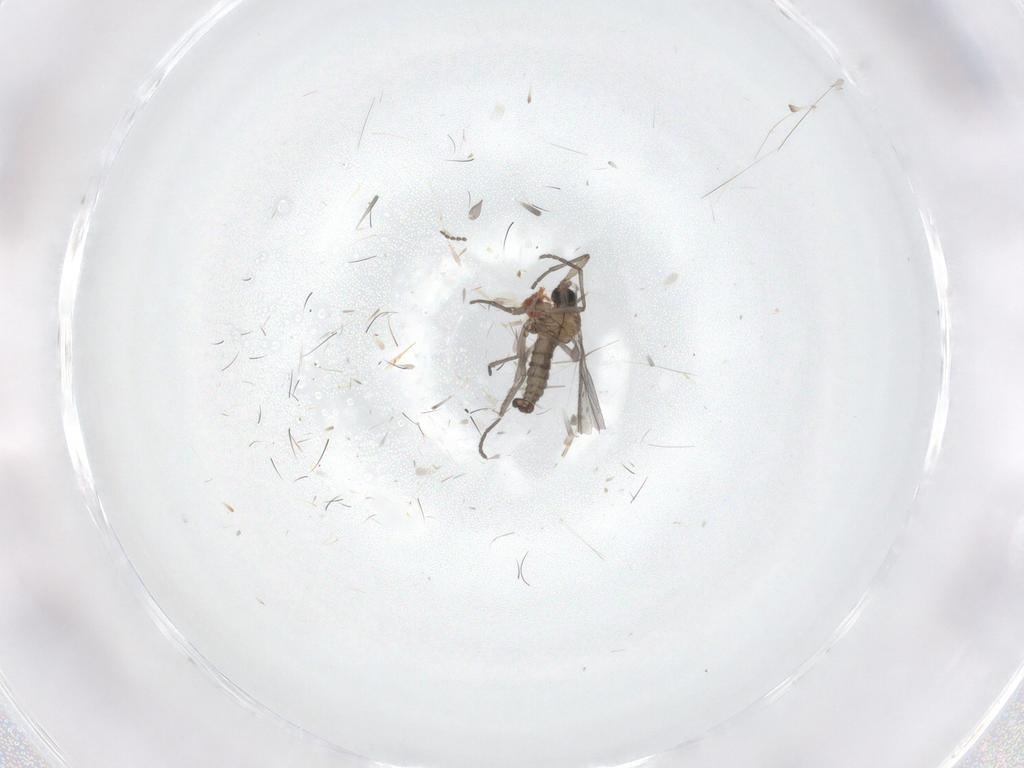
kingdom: Animalia
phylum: Arthropoda
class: Insecta
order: Diptera
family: Sciaridae
